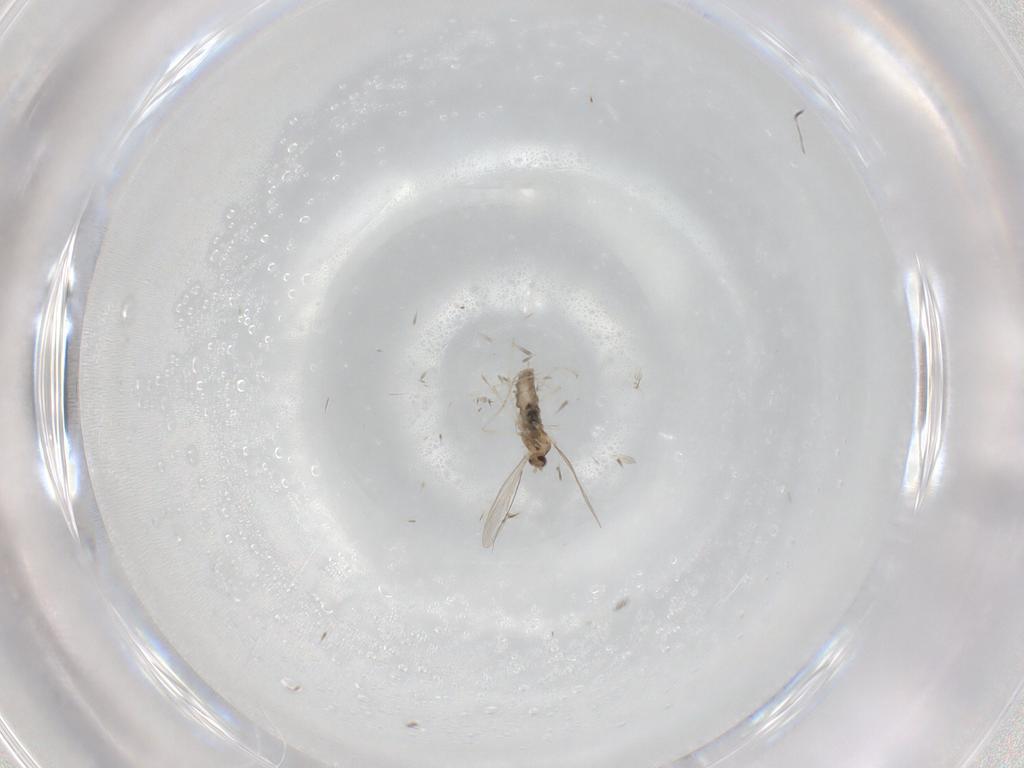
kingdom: Animalia
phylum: Arthropoda
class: Insecta
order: Diptera
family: Cecidomyiidae
